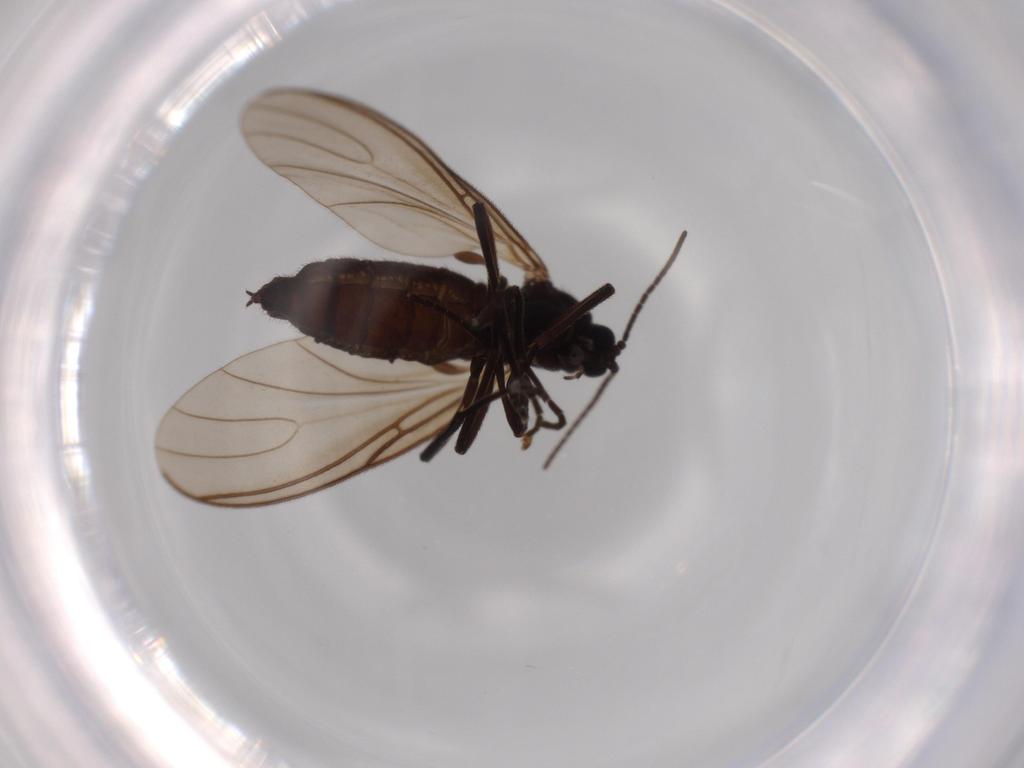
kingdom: Animalia
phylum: Arthropoda
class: Insecta
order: Diptera
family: Sciaridae
